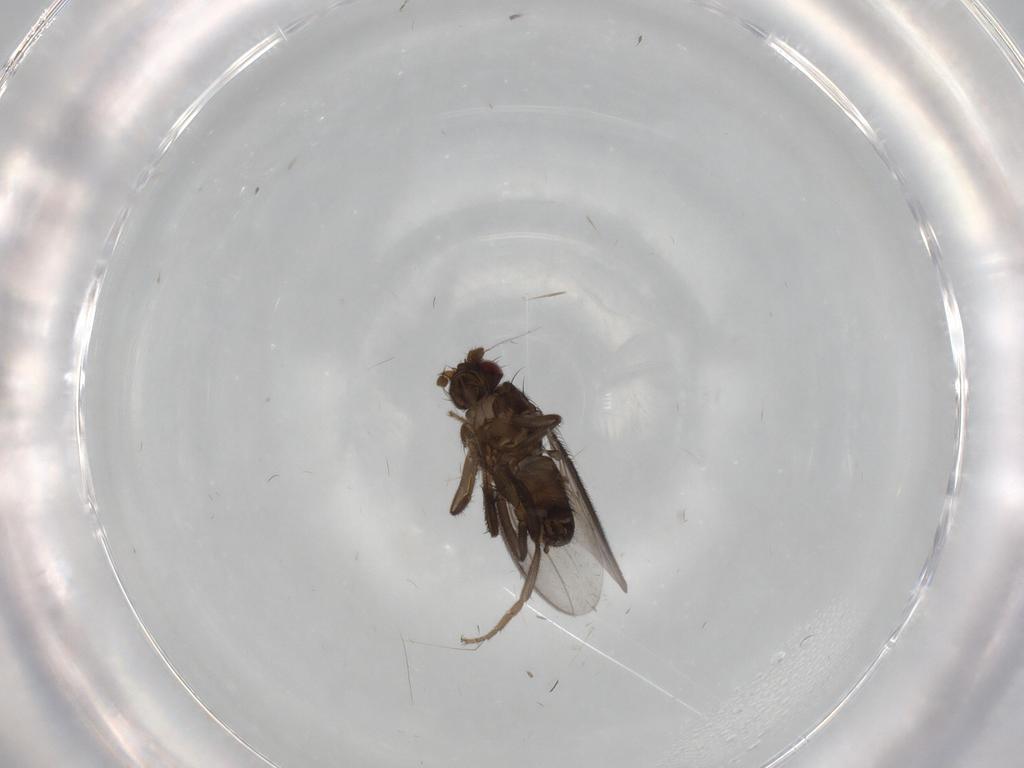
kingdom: Animalia
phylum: Arthropoda
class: Insecta
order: Diptera
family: Sphaeroceridae
